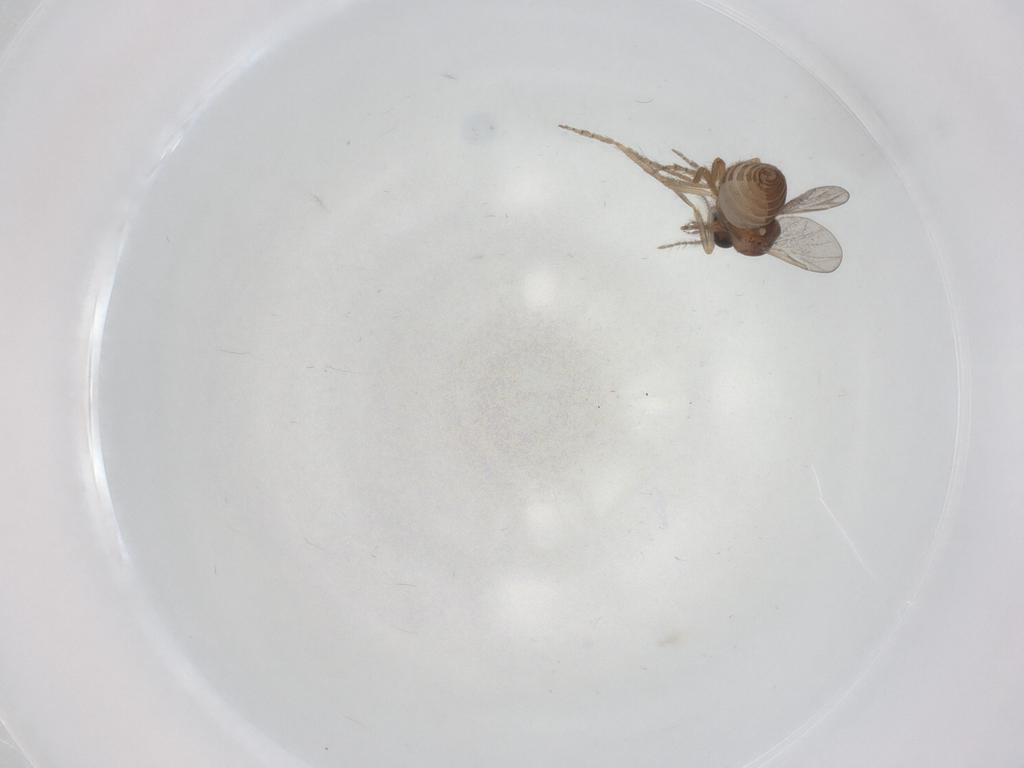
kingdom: Animalia
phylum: Arthropoda
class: Insecta
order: Diptera
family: Ceratopogonidae
